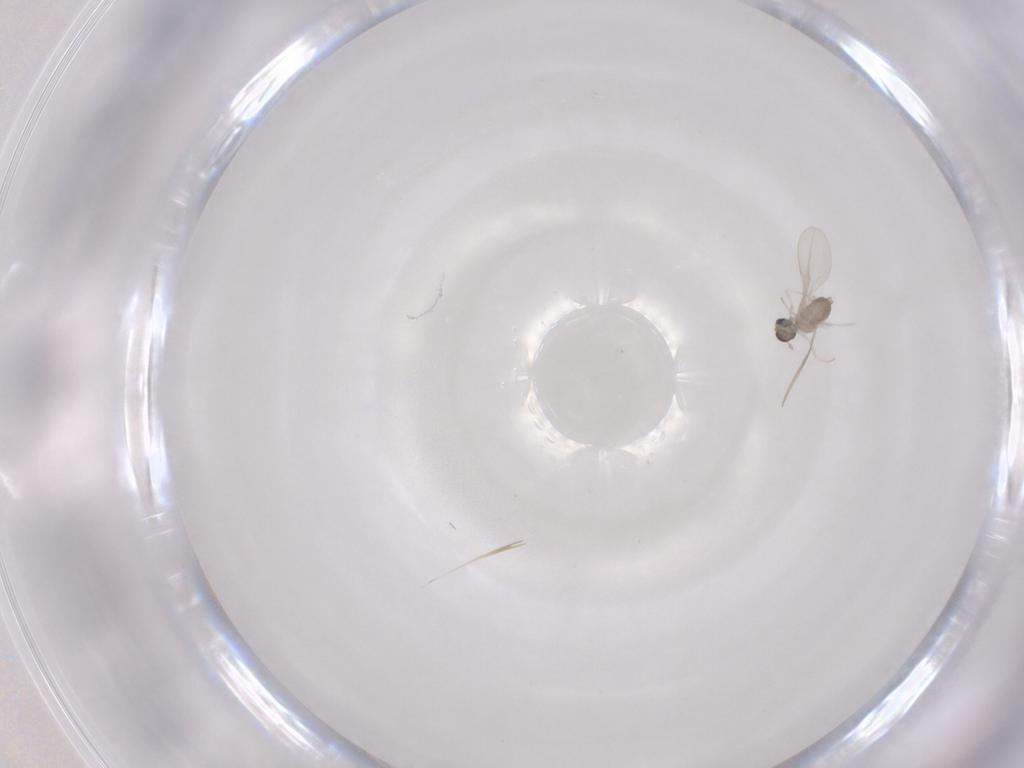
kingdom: Animalia
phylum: Arthropoda
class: Insecta
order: Diptera
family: Cecidomyiidae
